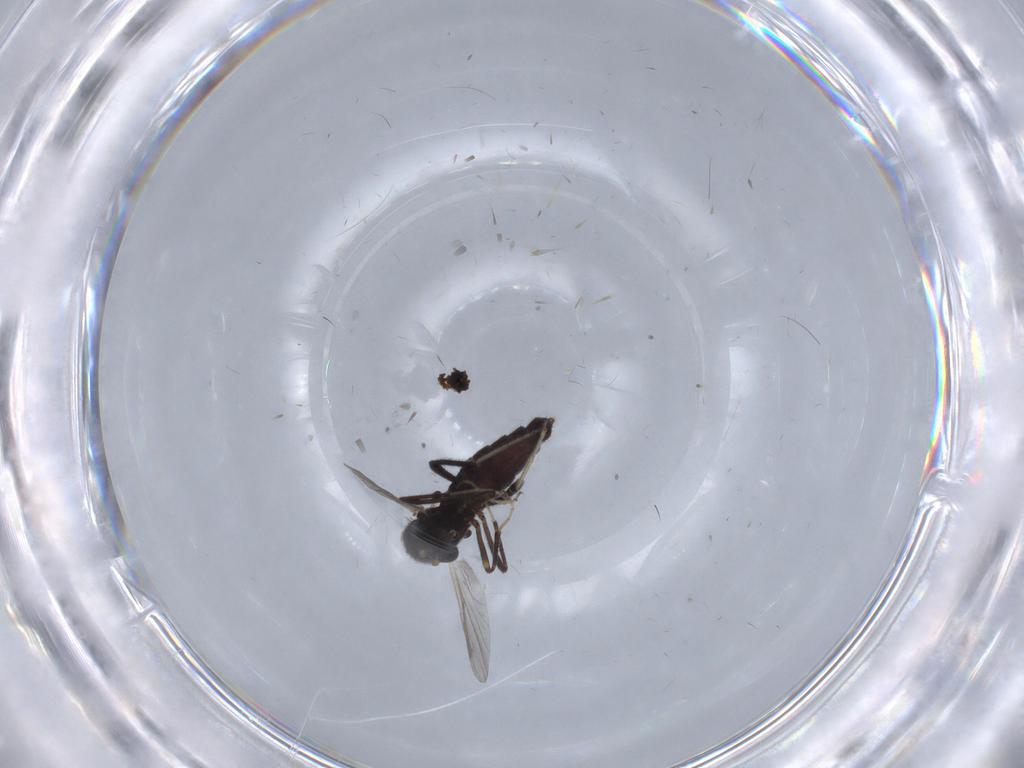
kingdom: Animalia
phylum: Arthropoda
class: Insecta
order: Diptera
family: Ceratopogonidae
